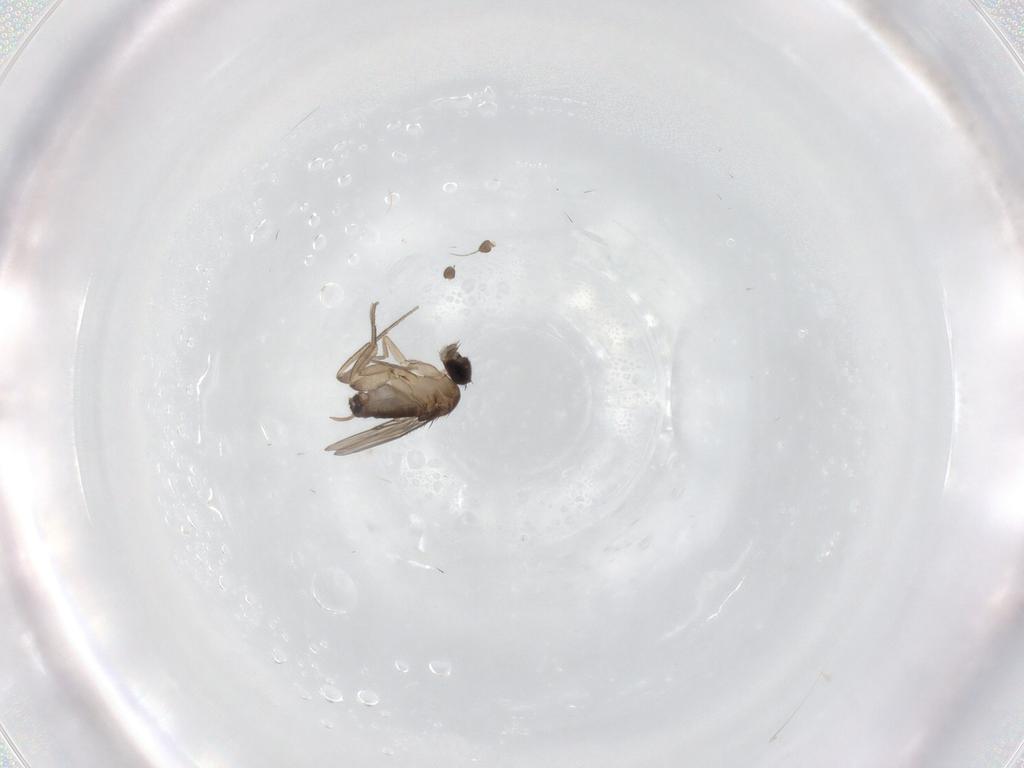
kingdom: Animalia
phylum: Arthropoda
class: Insecta
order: Diptera
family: Phoridae
